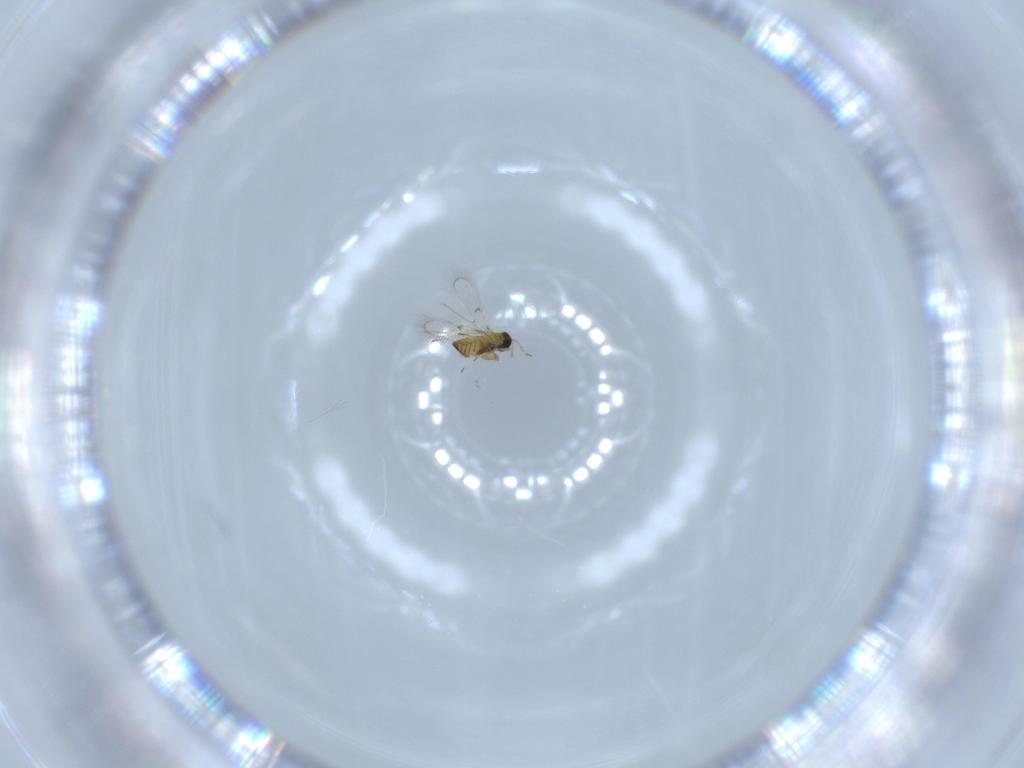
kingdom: Animalia
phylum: Arthropoda
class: Insecta
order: Hymenoptera
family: Trichogrammatidae
